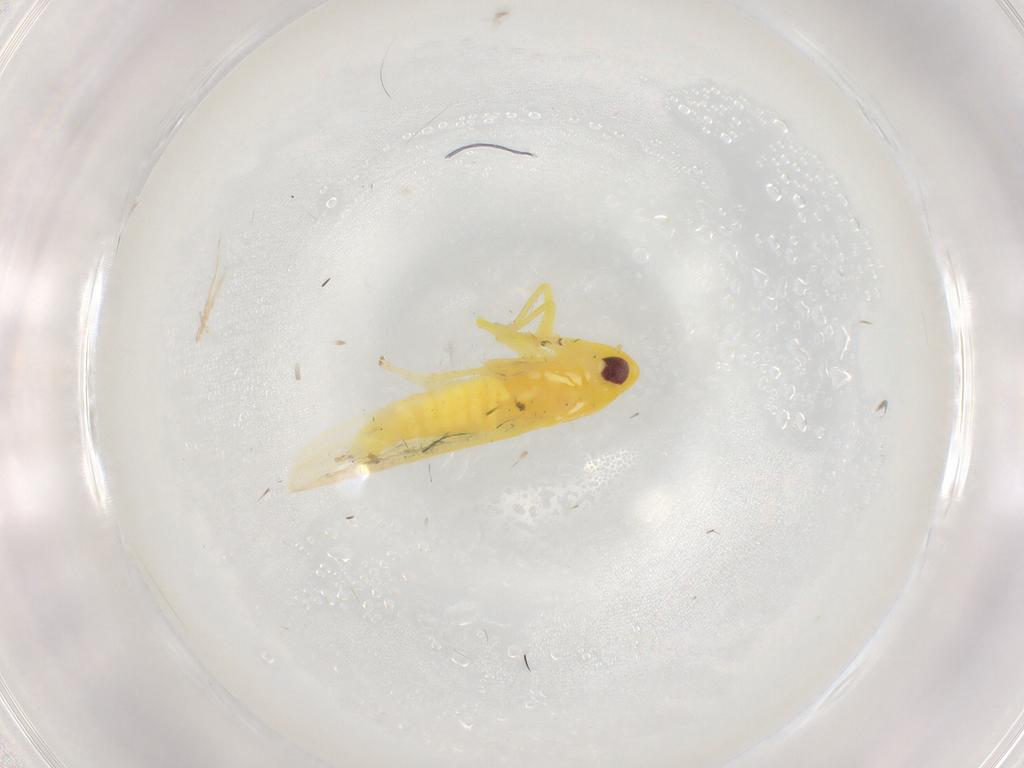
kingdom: Animalia
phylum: Arthropoda
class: Insecta
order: Hemiptera
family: Cicadellidae
